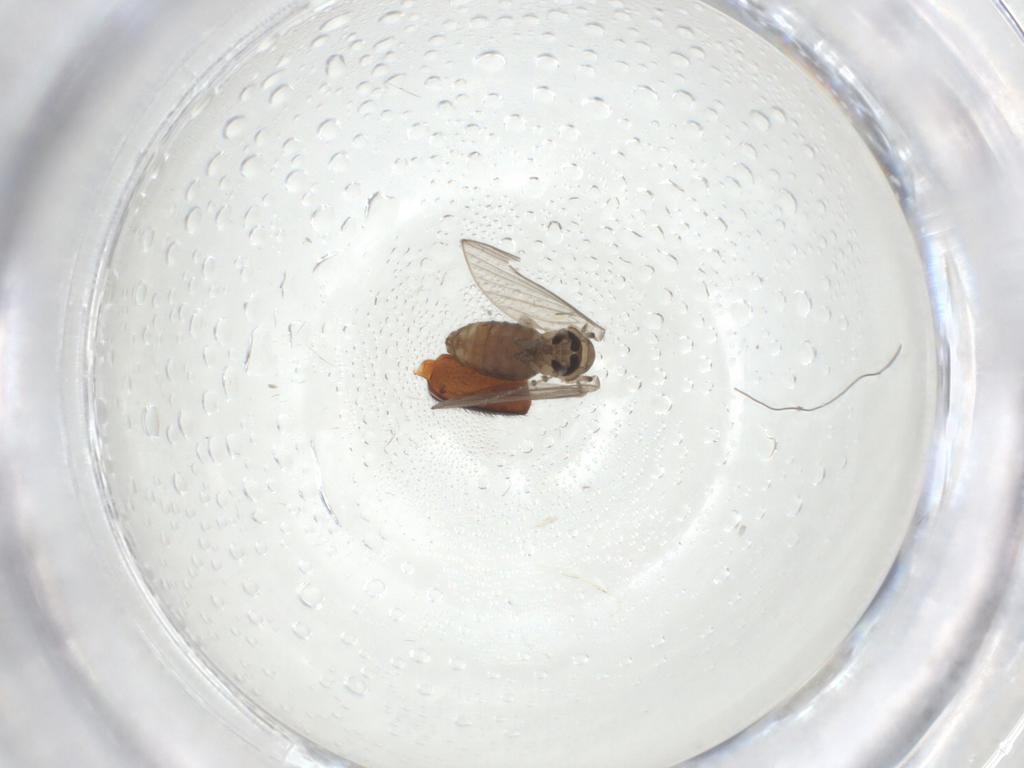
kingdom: Animalia
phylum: Arthropoda
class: Insecta
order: Diptera
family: Psychodidae
